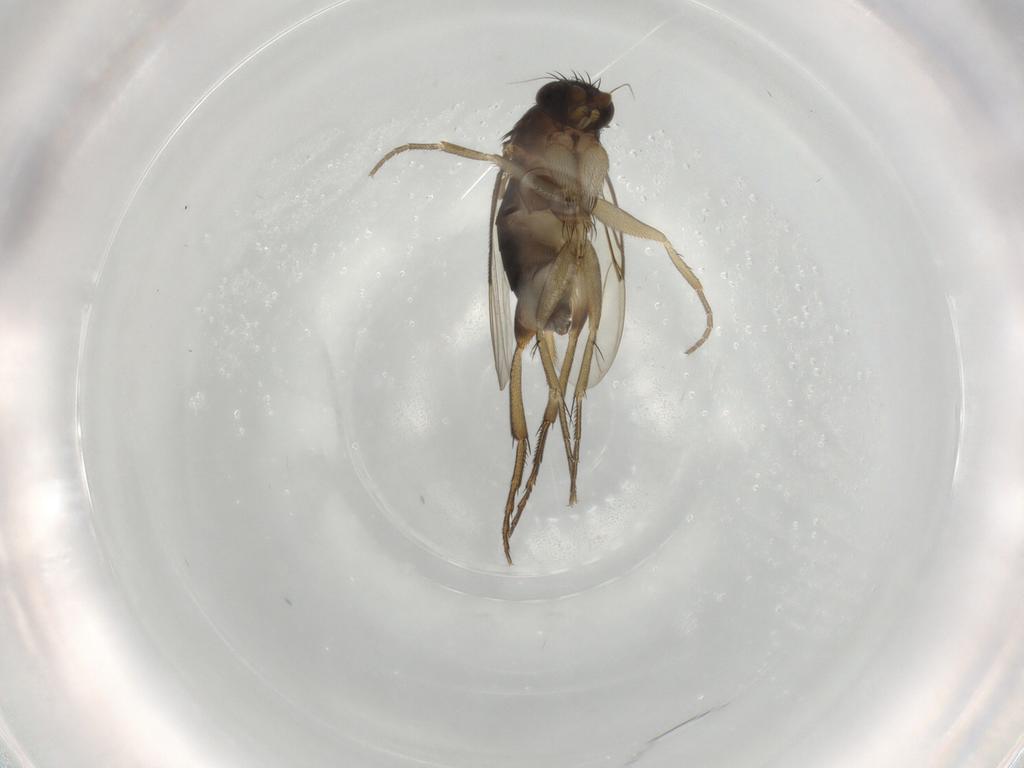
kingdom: Animalia
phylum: Arthropoda
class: Insecta
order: Diptera
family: Phoridae
